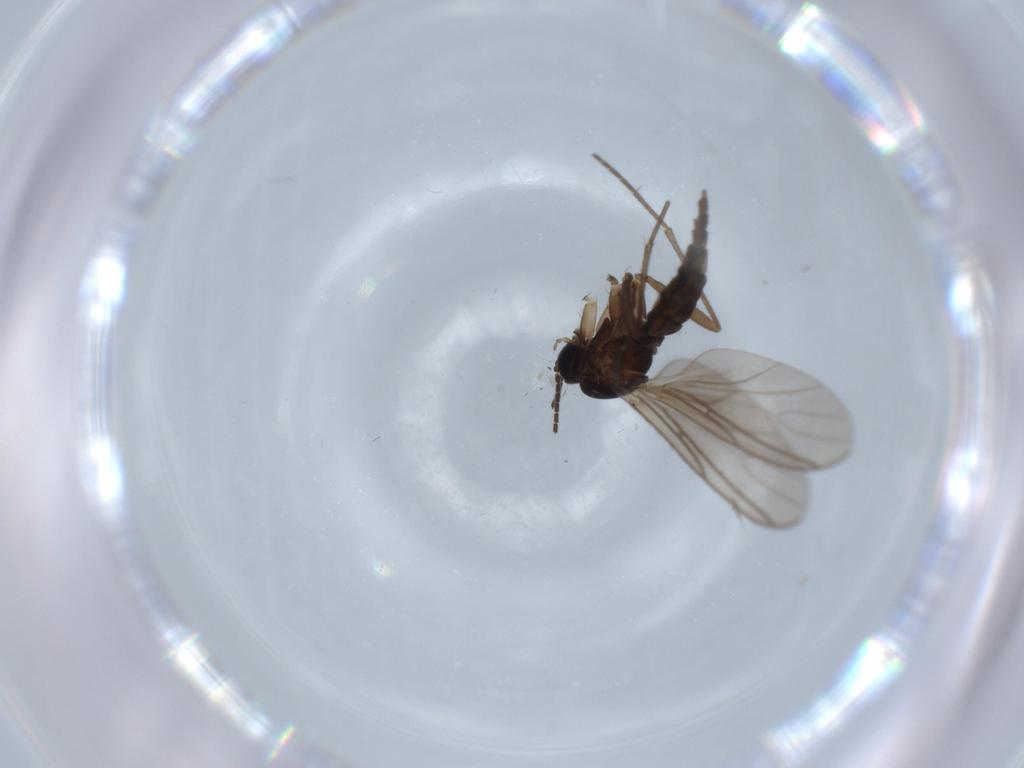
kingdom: Animalia
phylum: Arthropoda
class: Insecta
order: Diptera
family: Sciaridae
